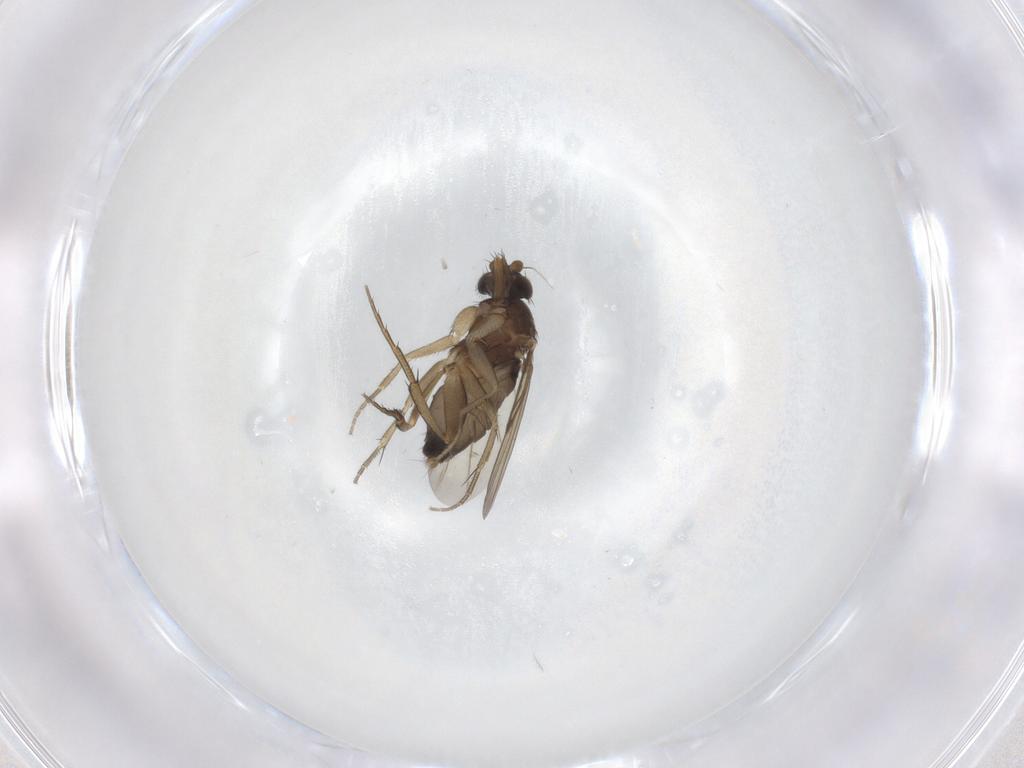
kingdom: Animalia
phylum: Arthropoda
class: Insecta
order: Diptera
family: Phoridae
